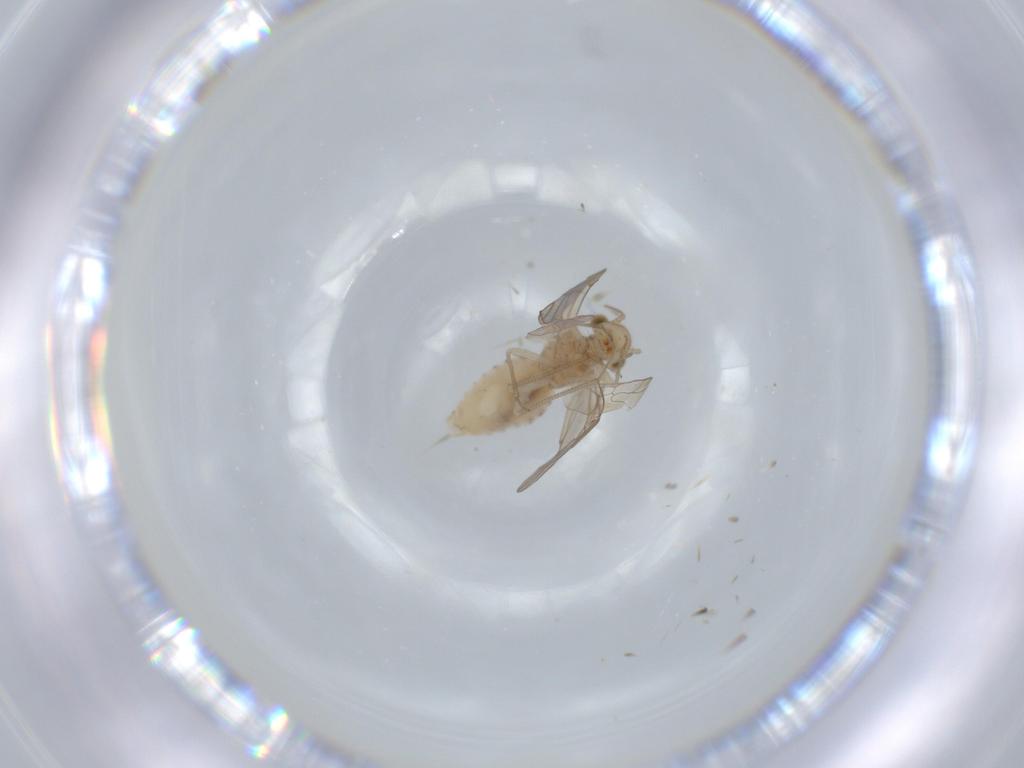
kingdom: Animalia
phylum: Arthropoda
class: Insecta
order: Psocodea
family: Lachesillidae
